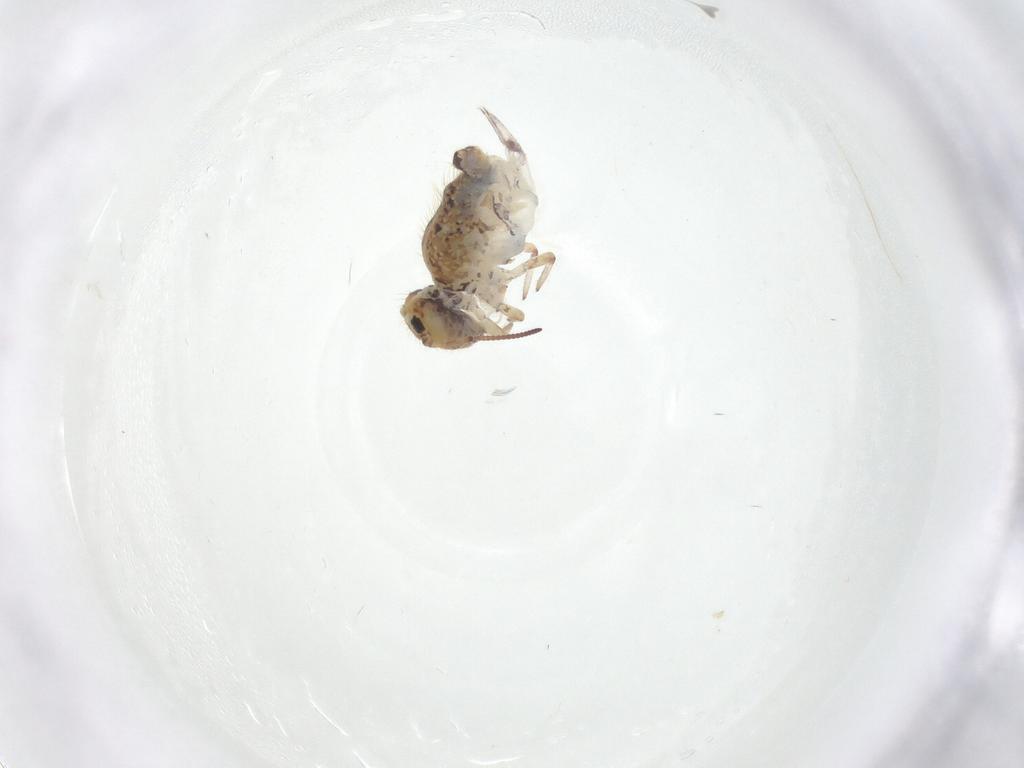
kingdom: Animalia
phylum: Arthropoda
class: Collembola
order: Symphypleona
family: Bourletiellidae
